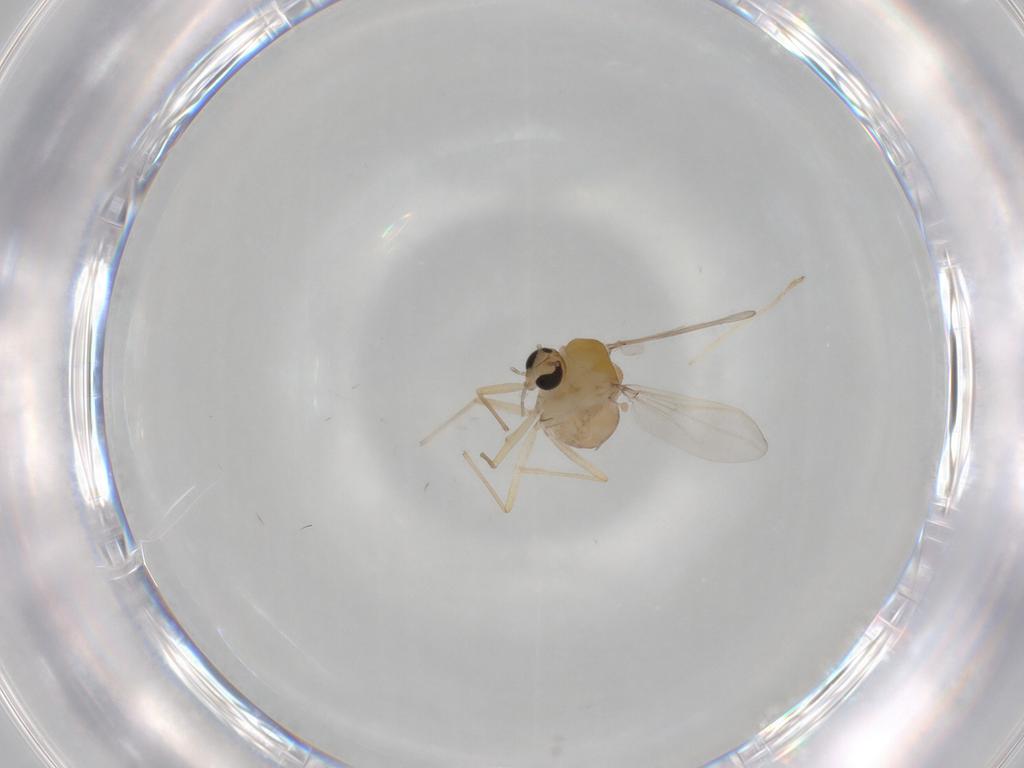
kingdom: Animalia
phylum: Arthropoda
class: Insecta
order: Diptera
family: Chironomidae
